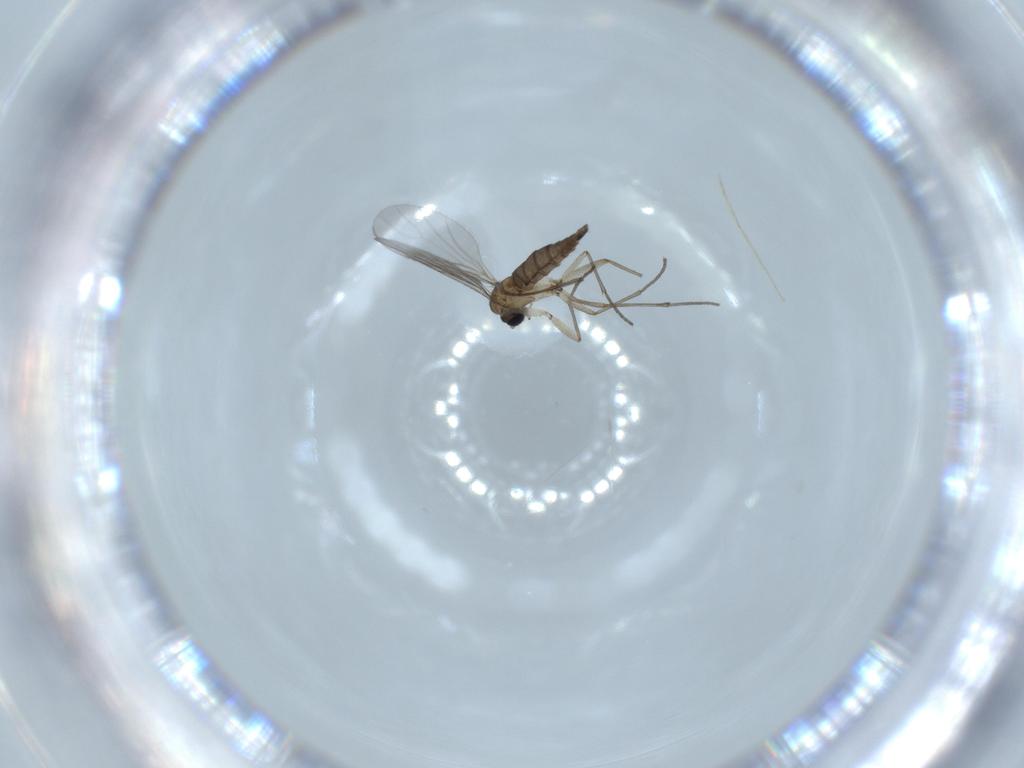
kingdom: Animalia
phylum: Arthropoda
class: Insecta
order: Diptera
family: Sciaridae
